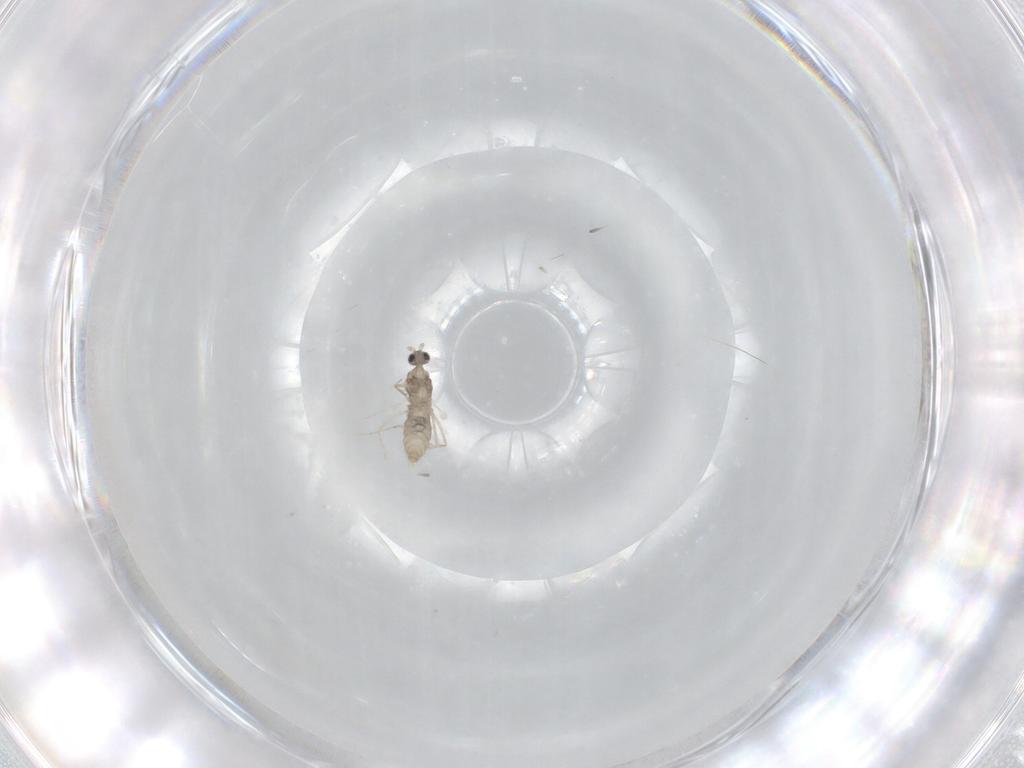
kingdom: Animalia
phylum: Arthropoda
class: Insecta
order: Diptera
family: Cecidomyiidae
